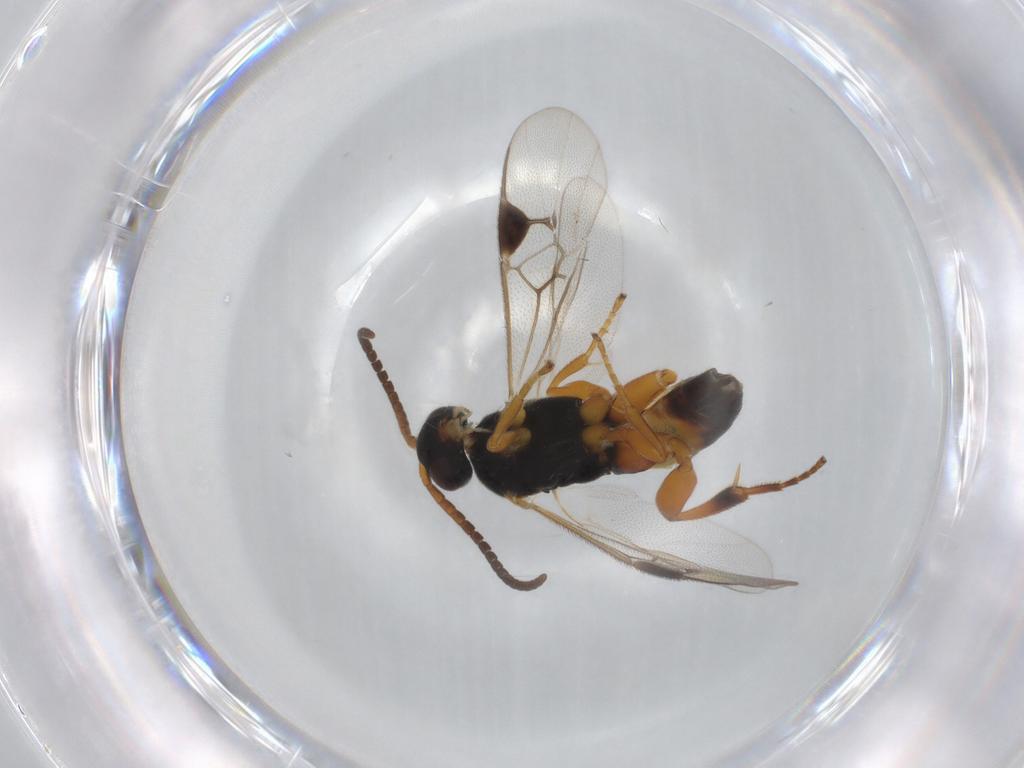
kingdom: Animalia
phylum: Arthropoda
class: Insecta
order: Hymenoptera
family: Braconidae
